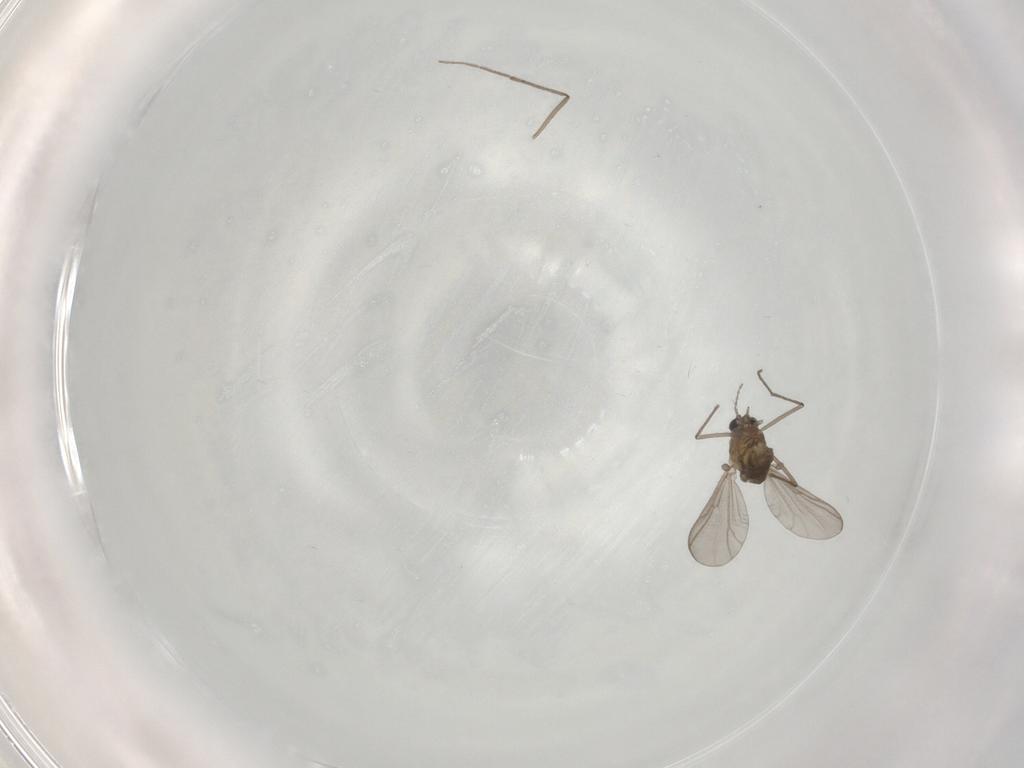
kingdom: Animalia
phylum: Arthropoda
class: Insecta
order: Diptera
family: Chironomidae
